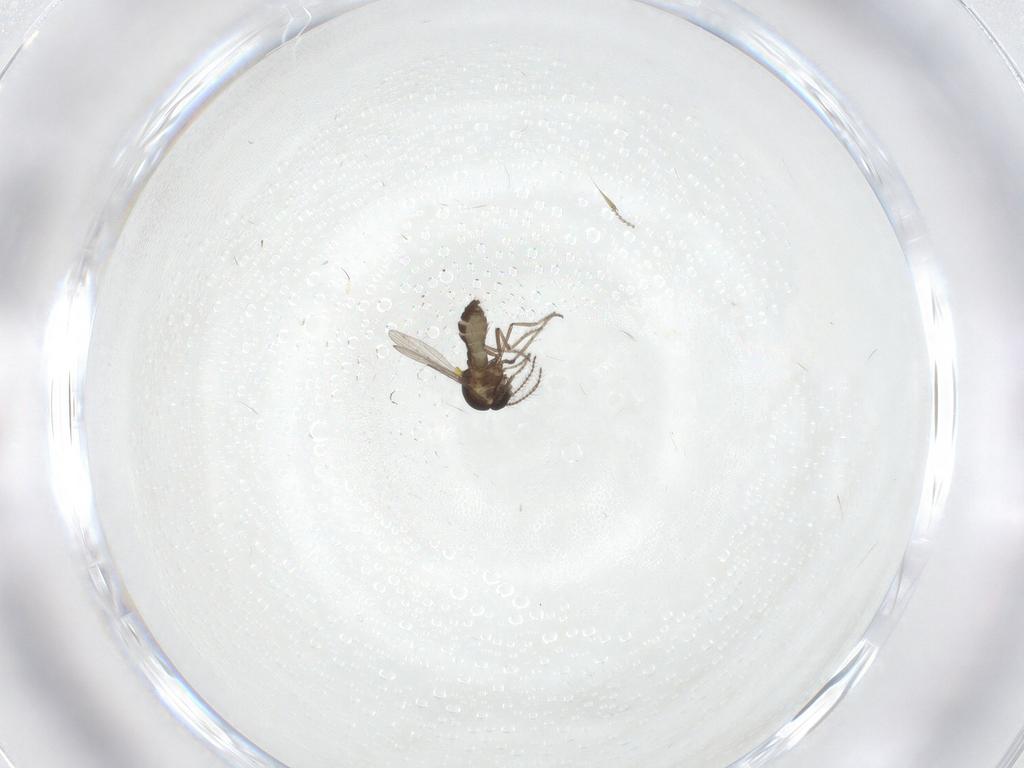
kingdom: Animalia
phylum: Arthropoda
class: Insecta
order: Diptera
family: Ceratopogonidae
